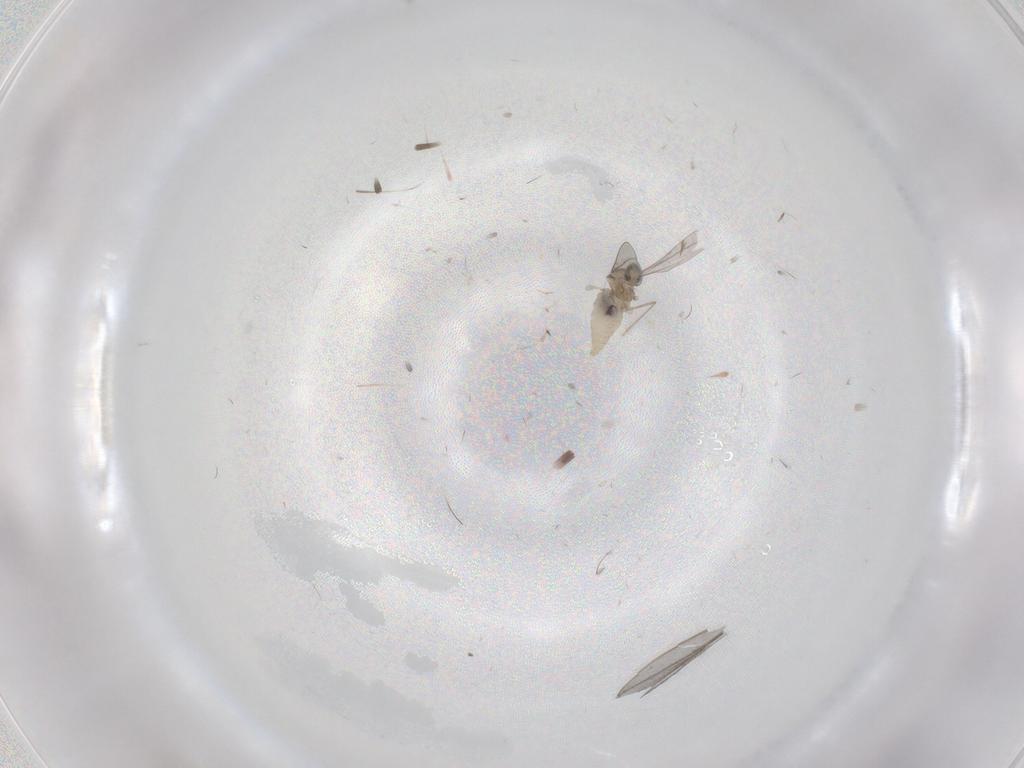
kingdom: Animalia
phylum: Arthropoda
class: Insecta
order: Diptera
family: Cecidomyiidae
